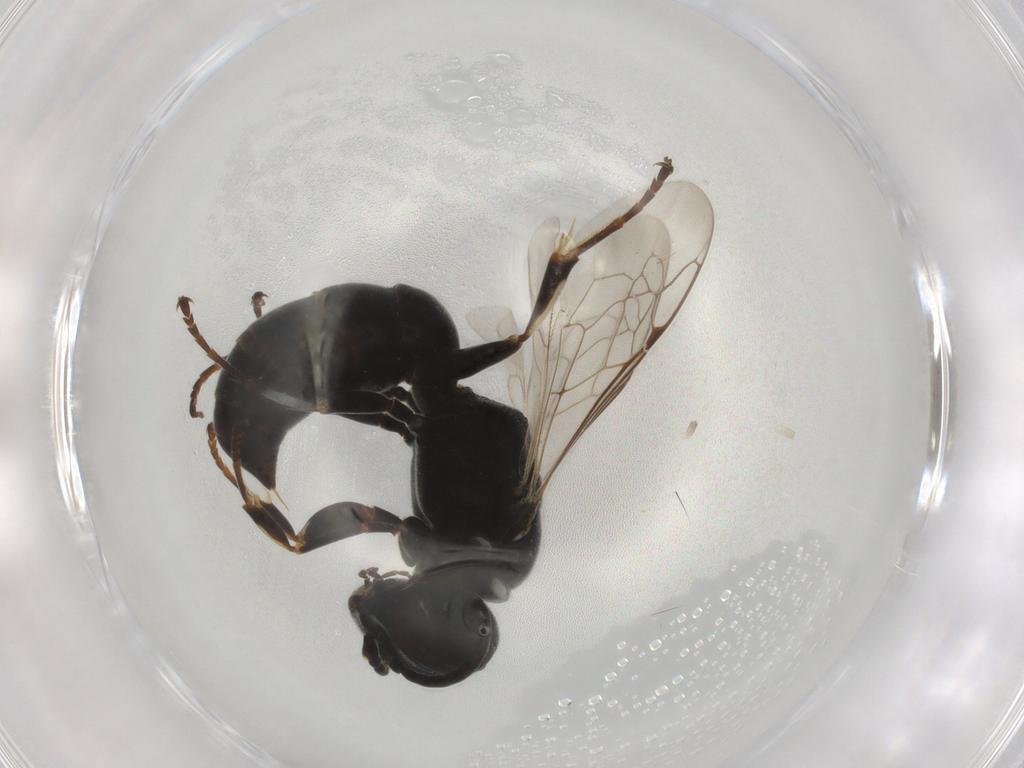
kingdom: Animalia
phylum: Arthropoda
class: Insecta
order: Hymenoptera
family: Crabronidae
